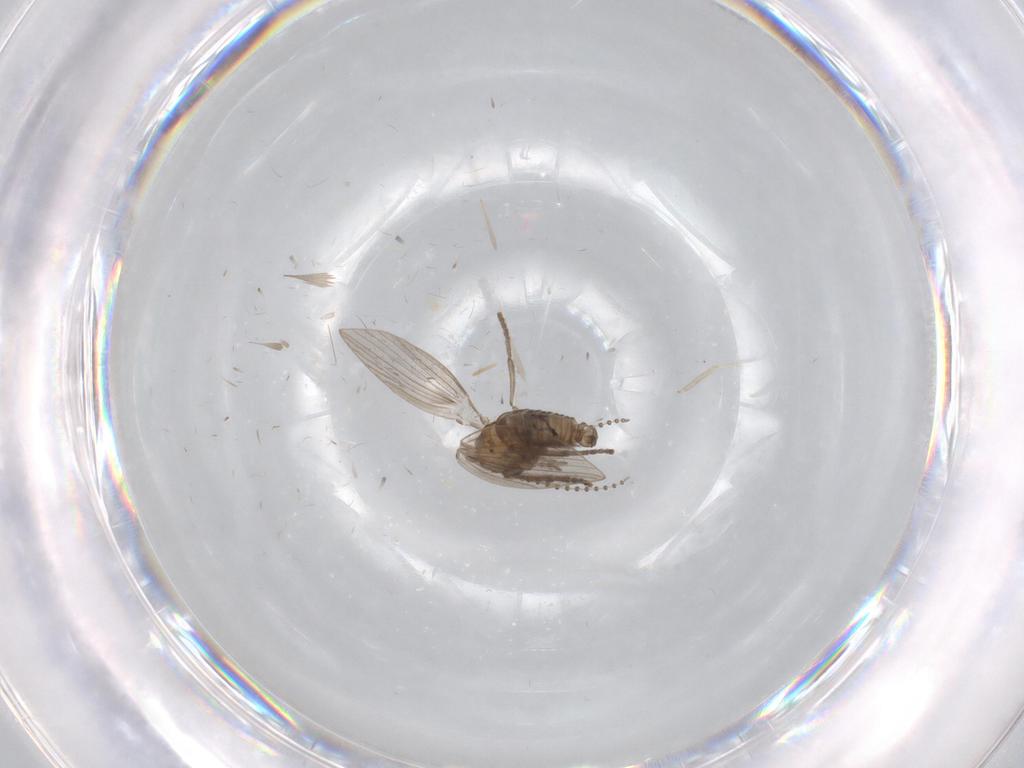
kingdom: Animalia
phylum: Arthropoda
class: Insecta
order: Diptera
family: Psychodidae
